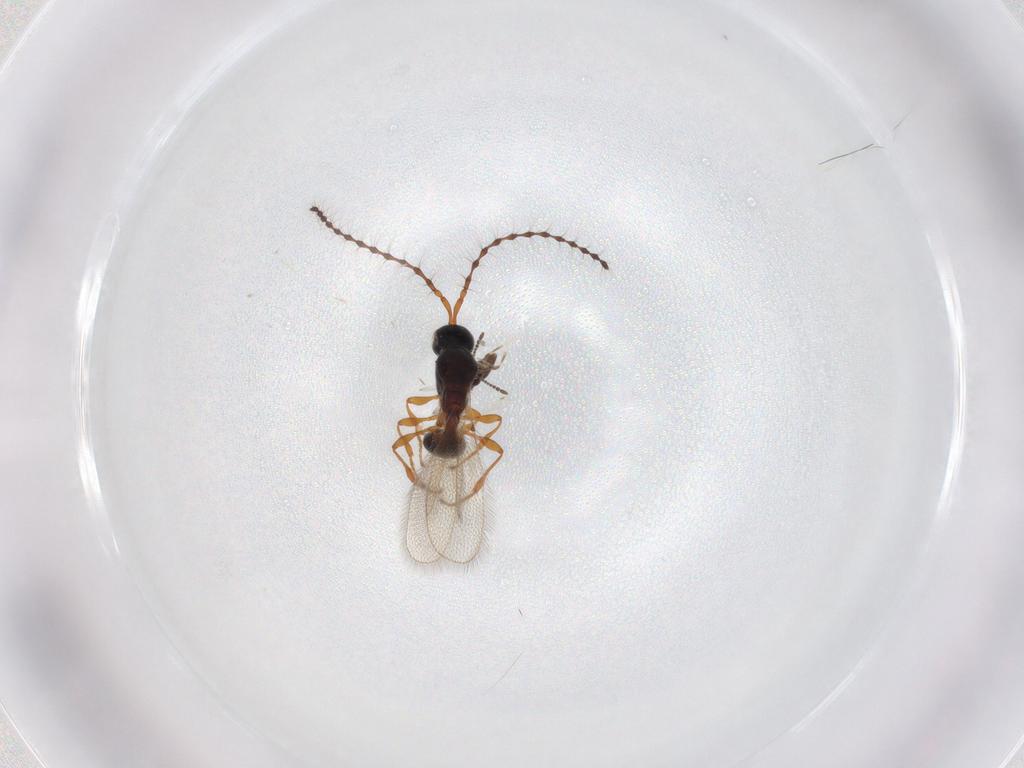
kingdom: Animalia
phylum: Arthropoda
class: Insecta
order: Hymenoptera
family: Diapriidae
